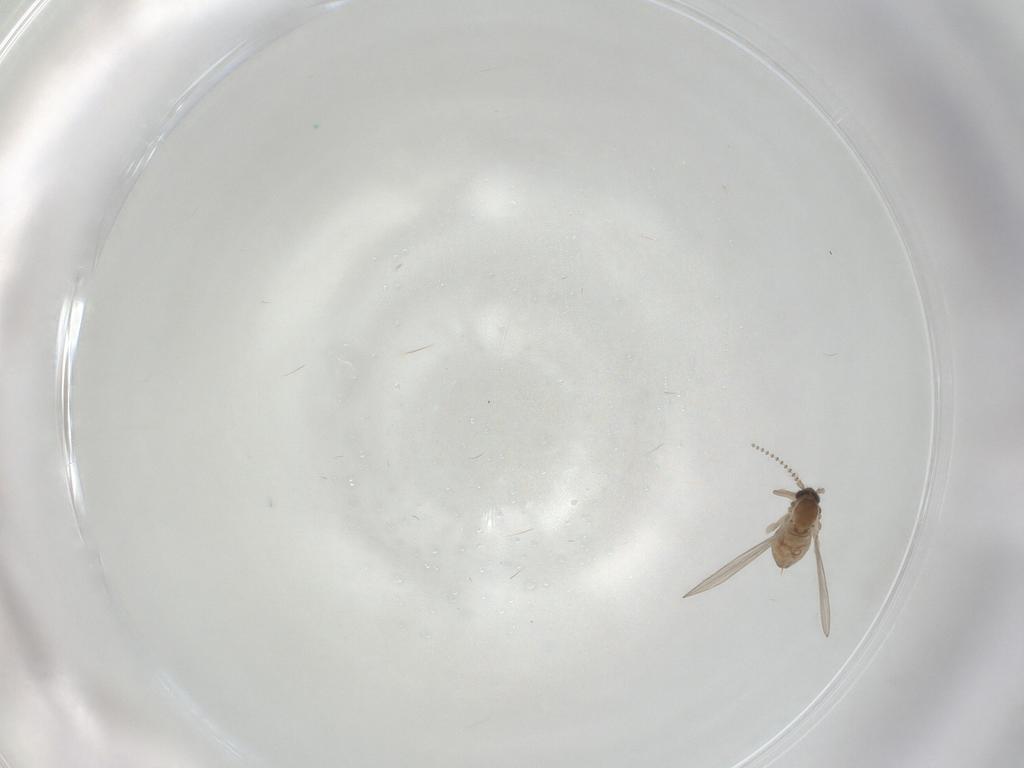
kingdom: Animalia
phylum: Arthropoda
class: Insecta
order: Diptera
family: Ceratopogonidae
